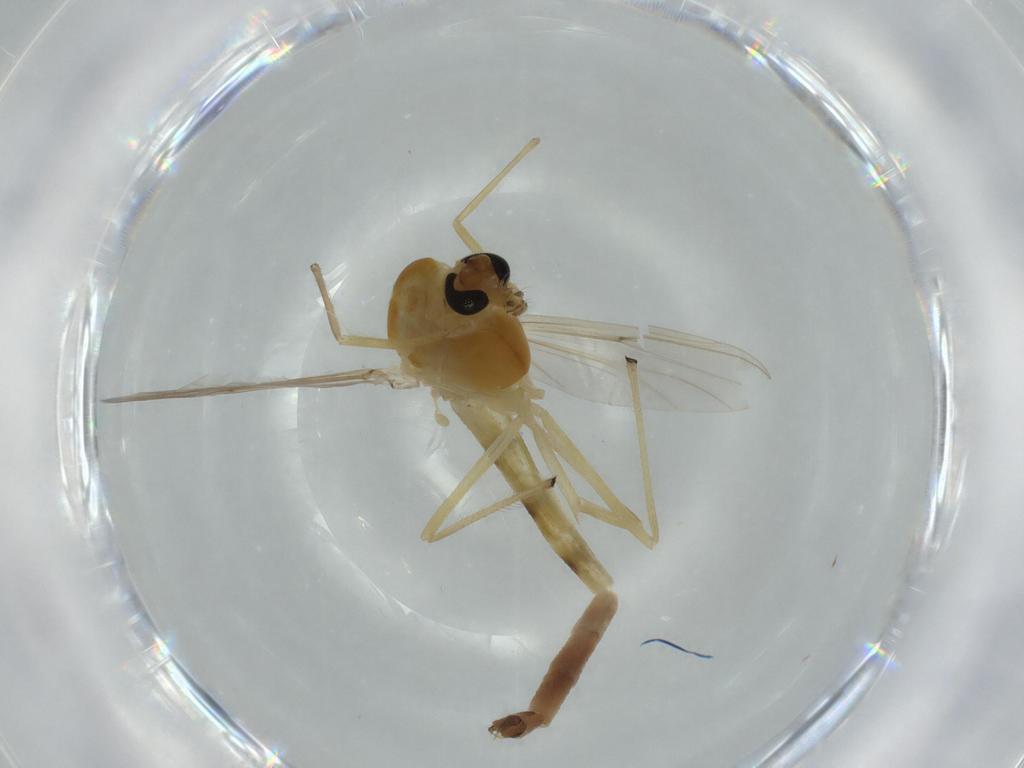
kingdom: Animalia
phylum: Arthropoda
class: Insecta
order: Diptera
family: Chironomidae
